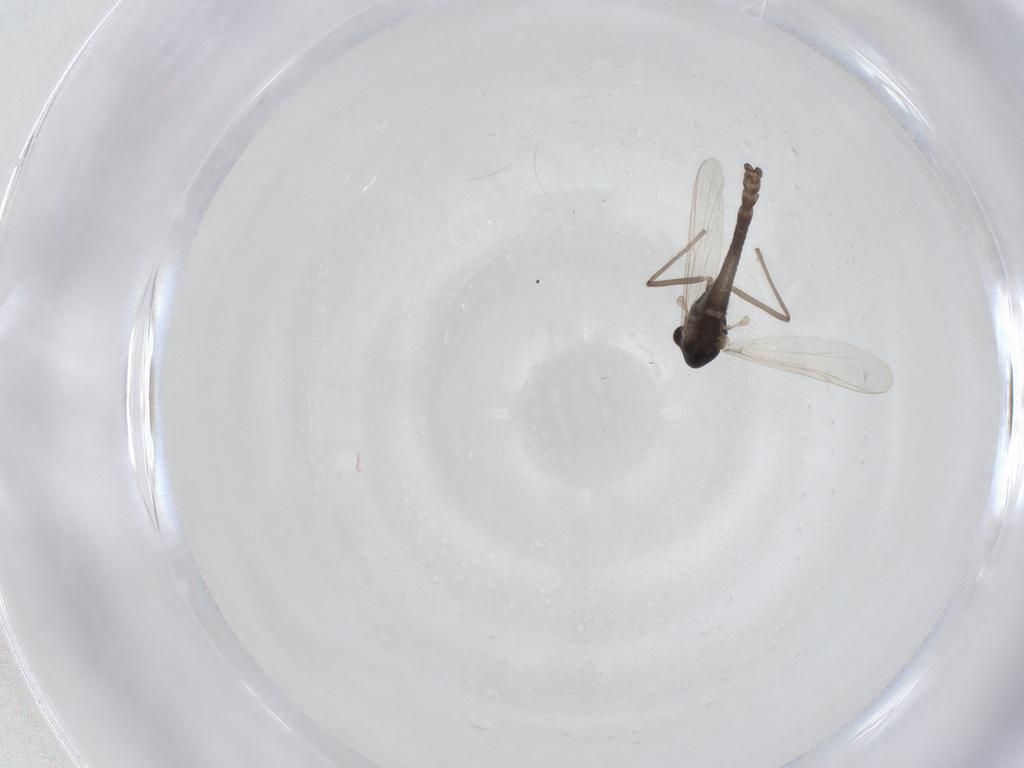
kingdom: Animalia
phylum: Arthropoda
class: Insecta
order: Diptera
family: Chironomidae
